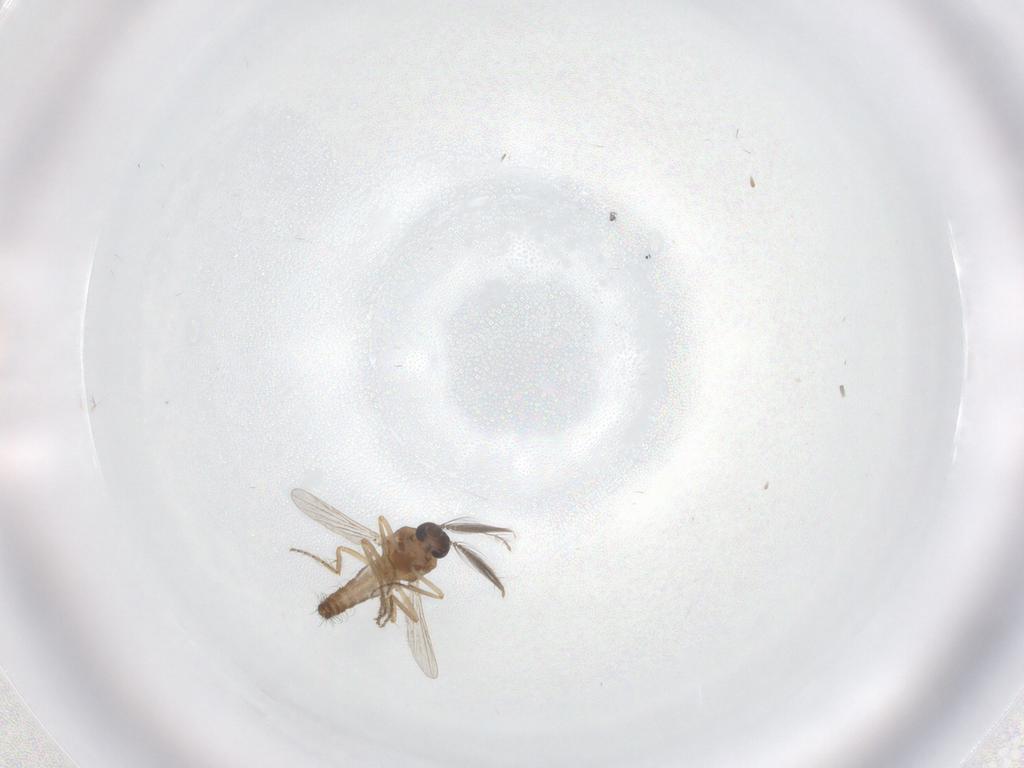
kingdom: Animalia
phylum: Arthropoda
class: Insecta
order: Diptera
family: Ceratopogonidae
